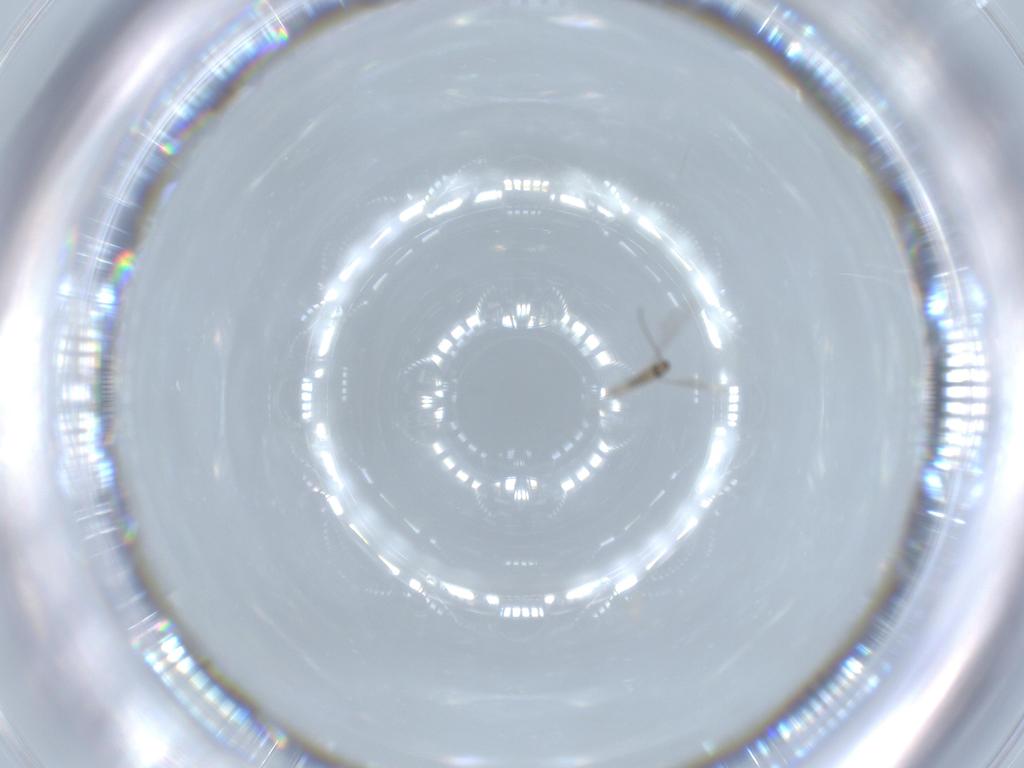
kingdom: Animalia
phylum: Arthropoda
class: Insecta
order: Diptera
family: Cecidomyiidae
